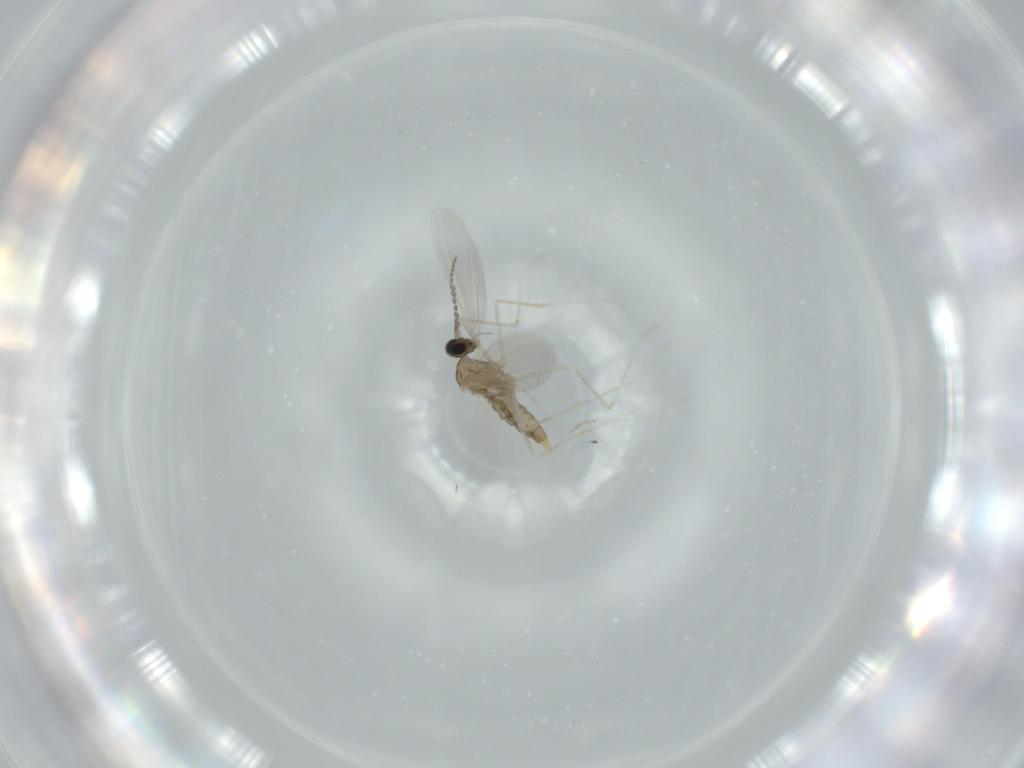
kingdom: Animalia
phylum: Arthropoda
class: Insecta
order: Diptera
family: Cecidomyiidae
